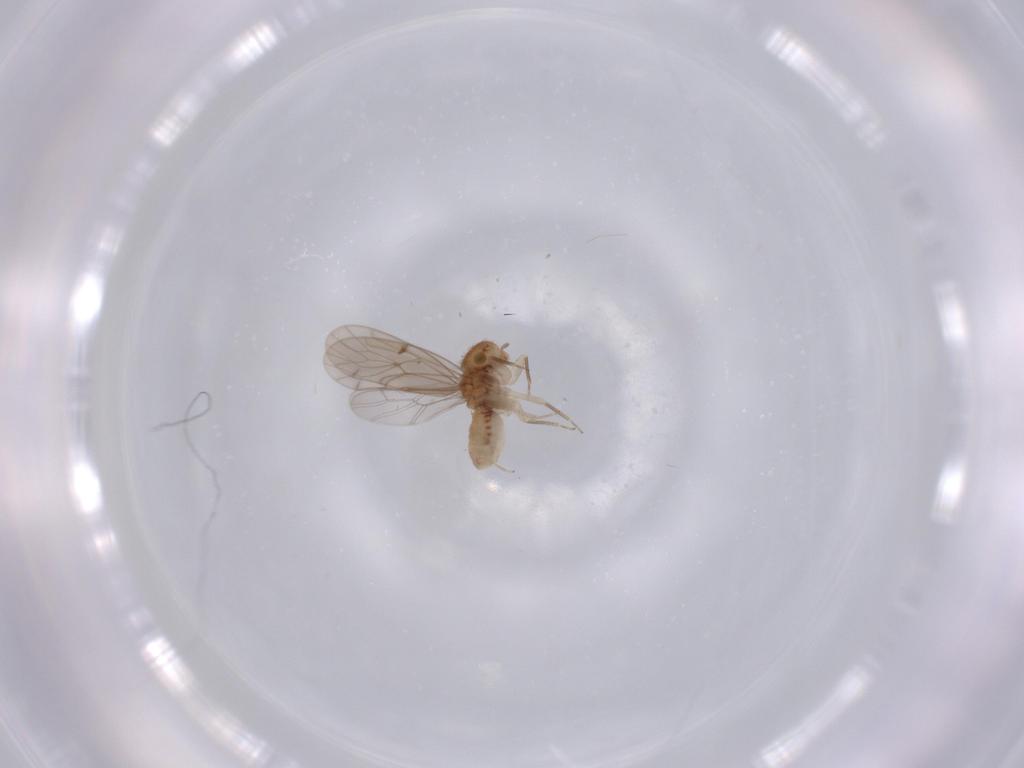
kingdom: Animalia
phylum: Arthropoda
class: Insecta
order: Psocodea
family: Ectopsocidae
